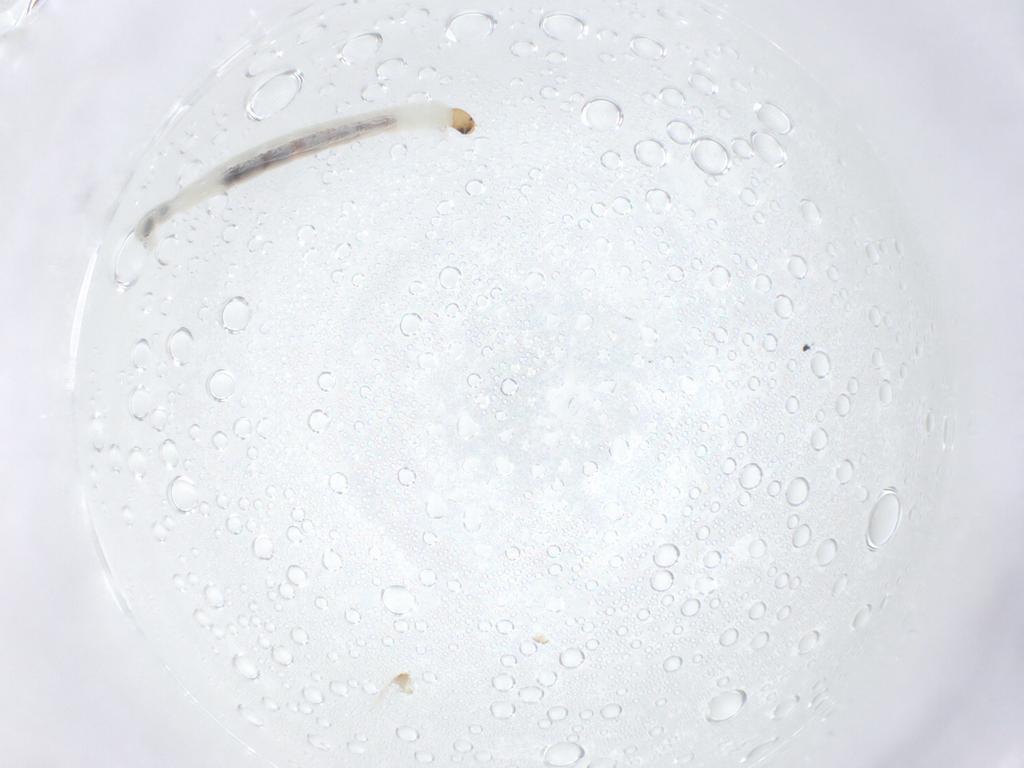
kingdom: Animalia
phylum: Arthropoda
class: Insecta
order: Diptera
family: Chironomidae
